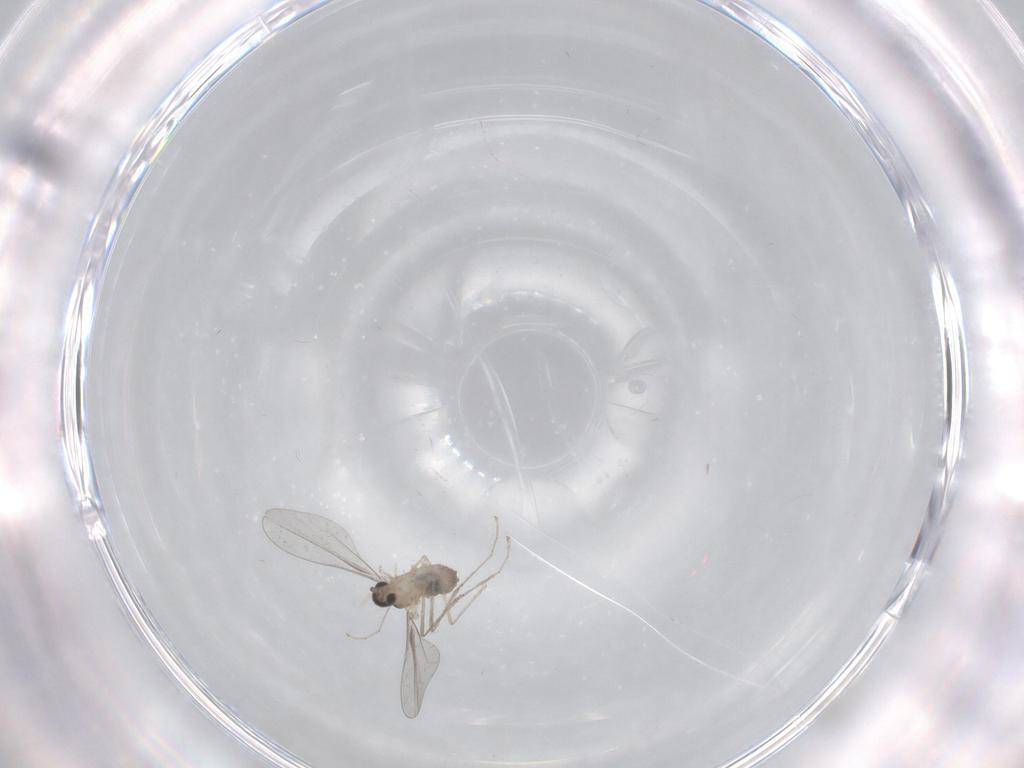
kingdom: Animalia
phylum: Arthropoda
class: Insecta
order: Diptera
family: Cecidomyiidae
